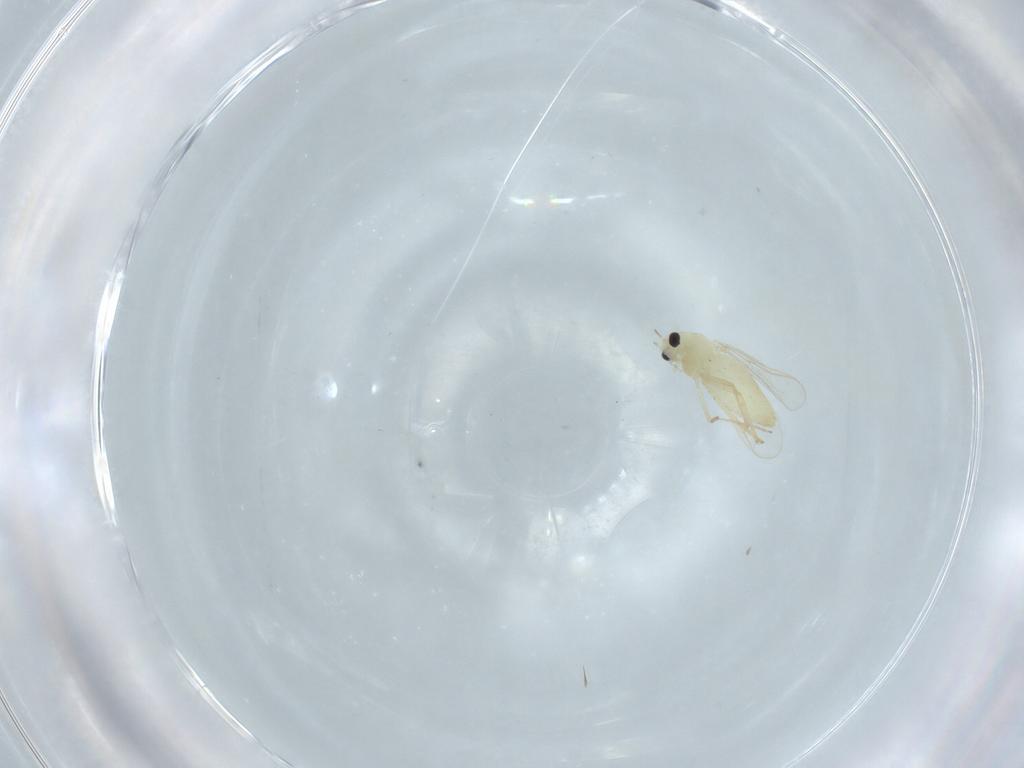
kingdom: Animalia
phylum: Arthropoda
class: Insecta
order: Diptera
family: Chironomidae
